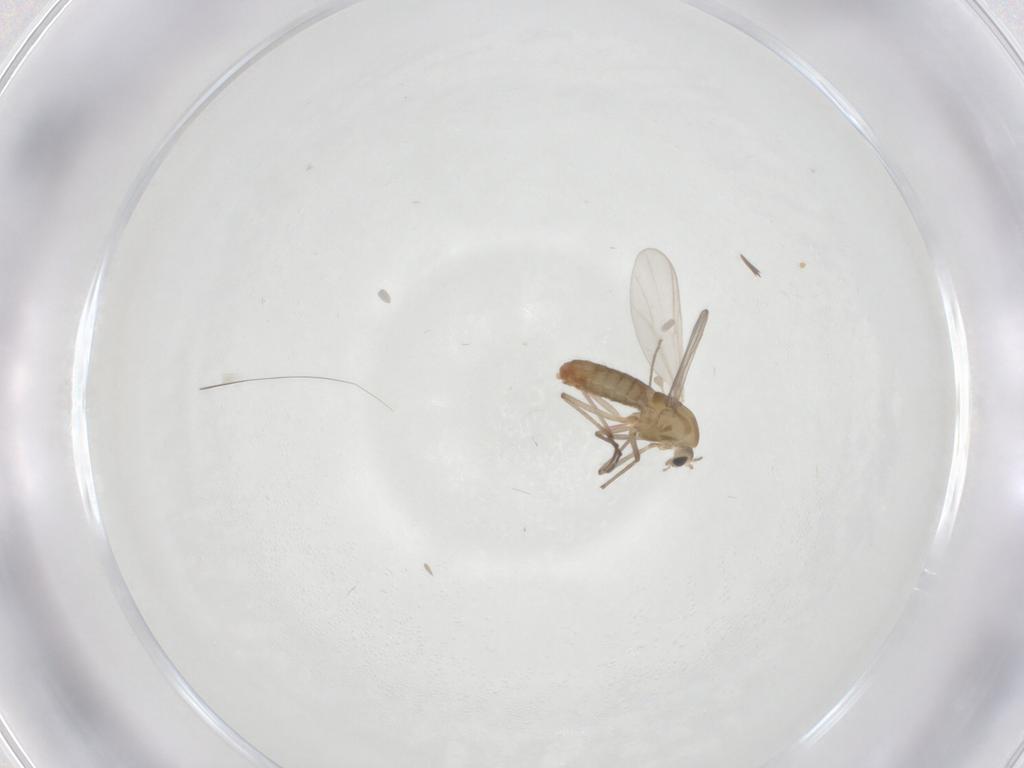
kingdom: Animalia
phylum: Arthropoda
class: Insecta
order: Diptera
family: Chironomidae
